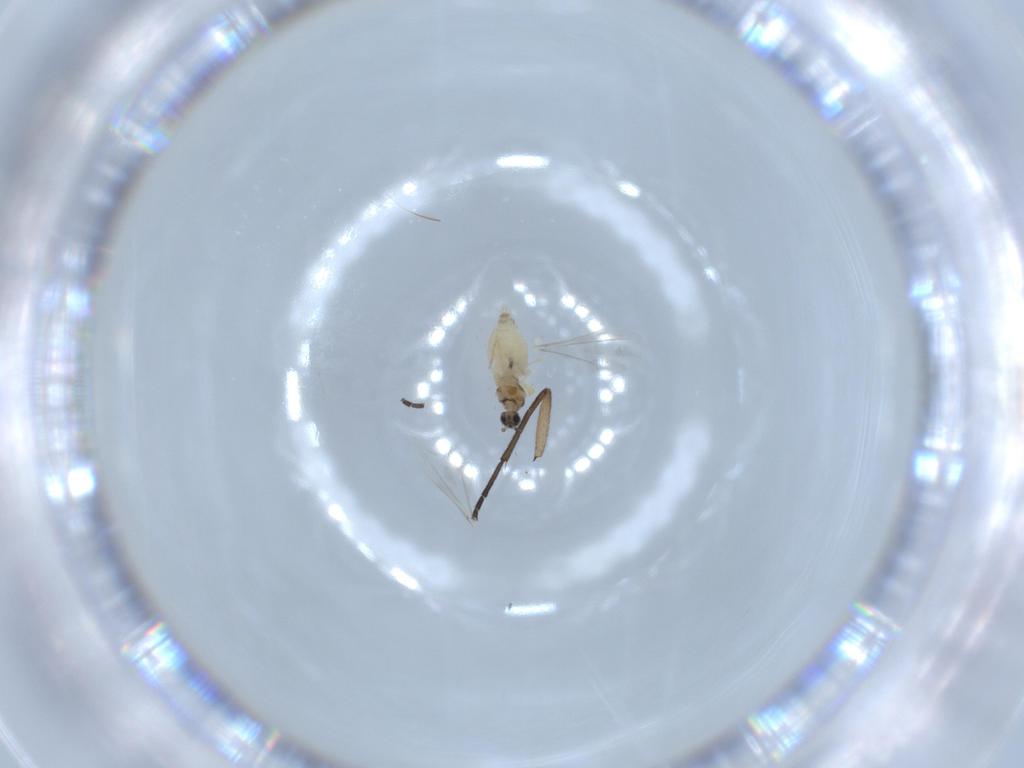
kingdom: Animalia
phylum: Arthropoda
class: Insecta
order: Diptera
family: Cecidomyiidae
